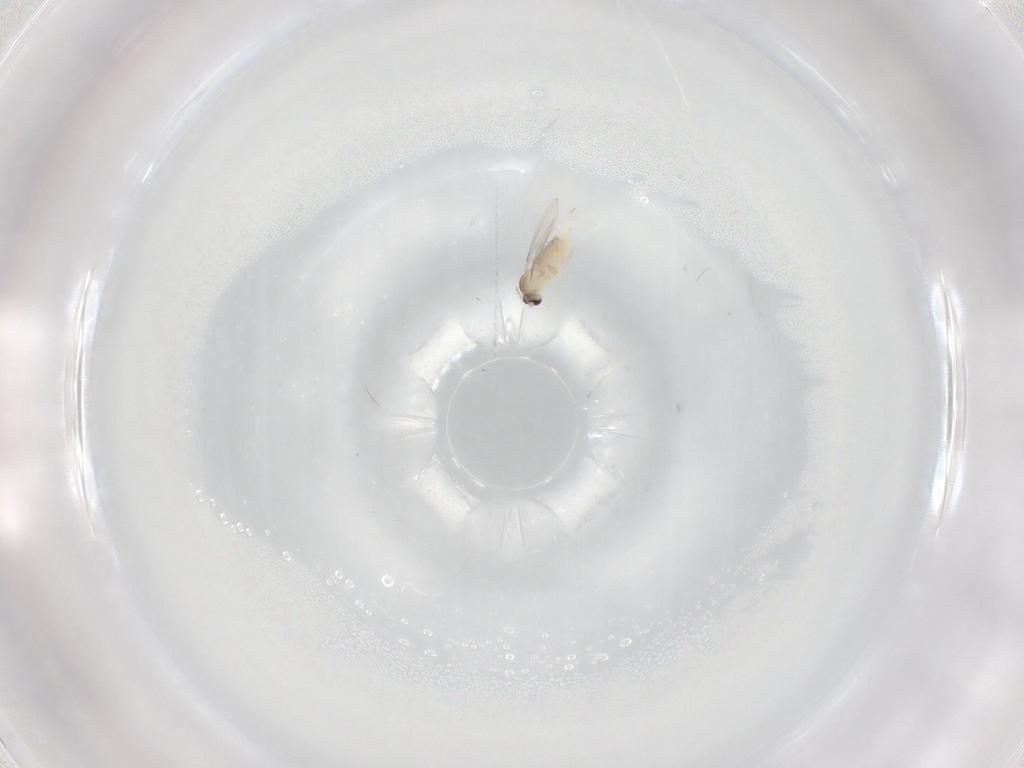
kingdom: Animalia
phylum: Arthropoda
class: Insecta
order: Diptera
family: Cecidomyiidae
